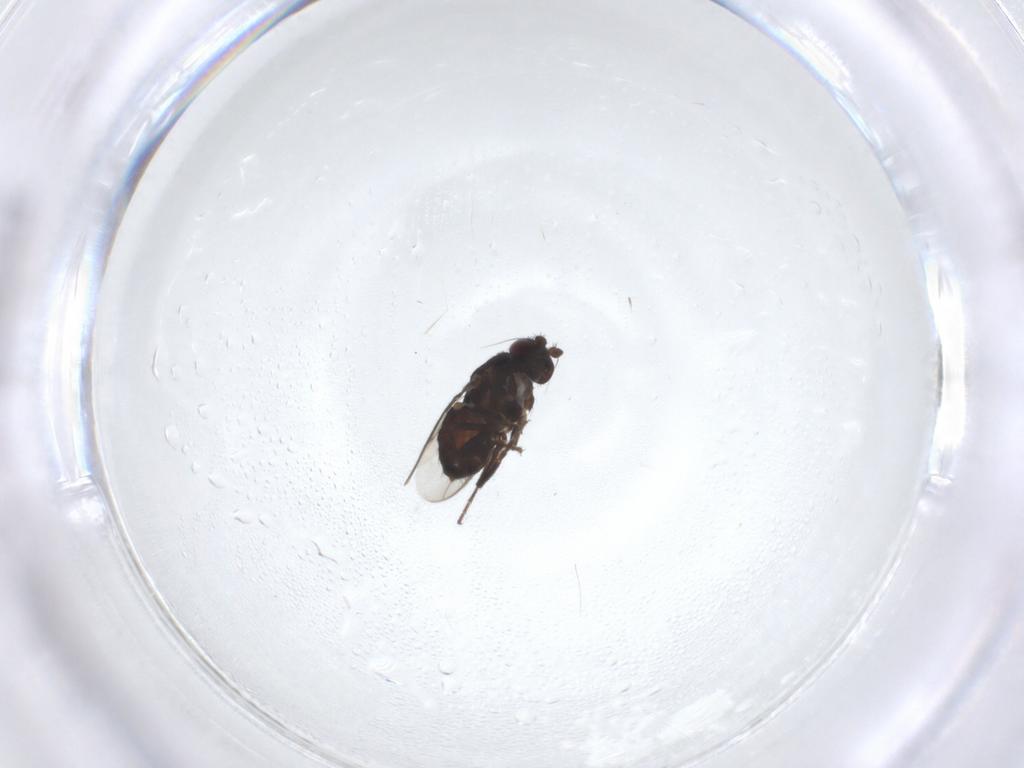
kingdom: Animalia
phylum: Arthropoda
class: Insecta
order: Diptera
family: Sphaeroceridae
